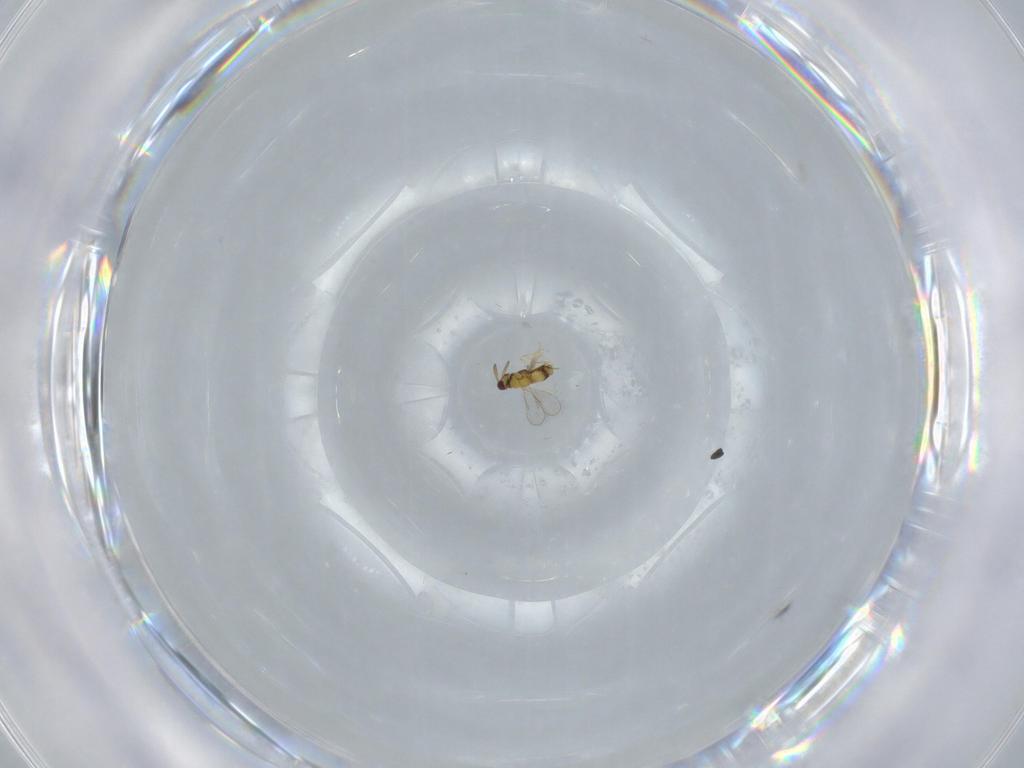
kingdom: Animalia
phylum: Arthropoda
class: Insecta
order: Hymenoptera
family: Aphelinidae
